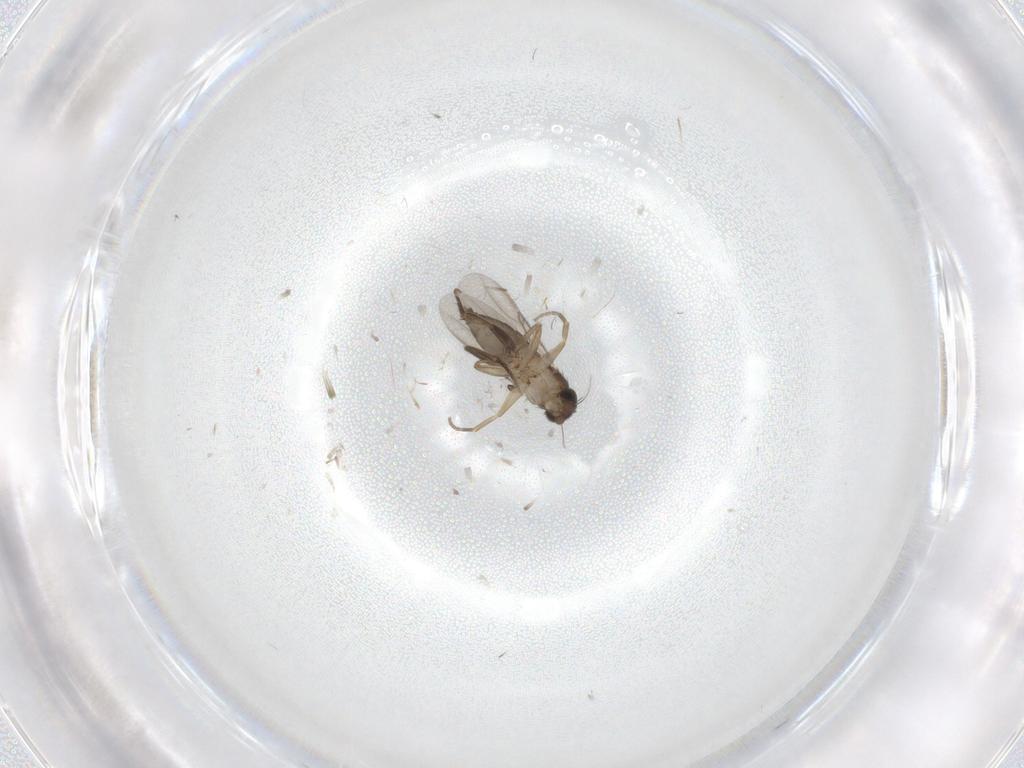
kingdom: Animalia
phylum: Arthropoda
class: Insecta
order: Diptera
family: Phoridae
